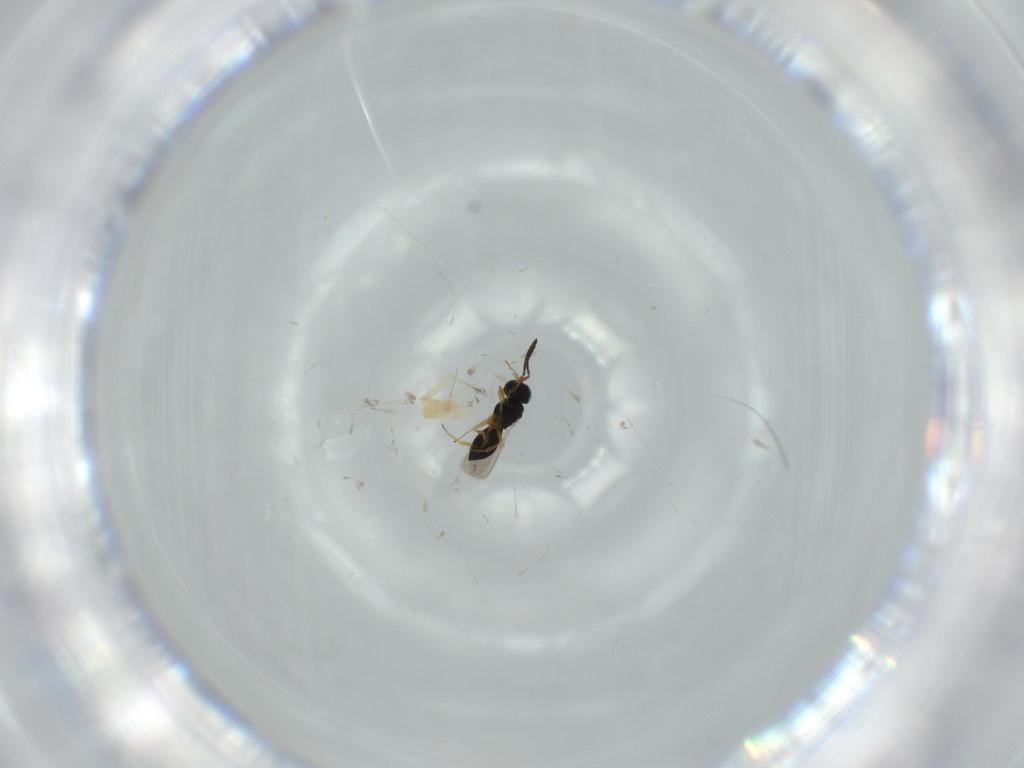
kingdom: Animalia
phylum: Arthropoda
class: Insecta
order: Hymenoptera
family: Scelionidae
